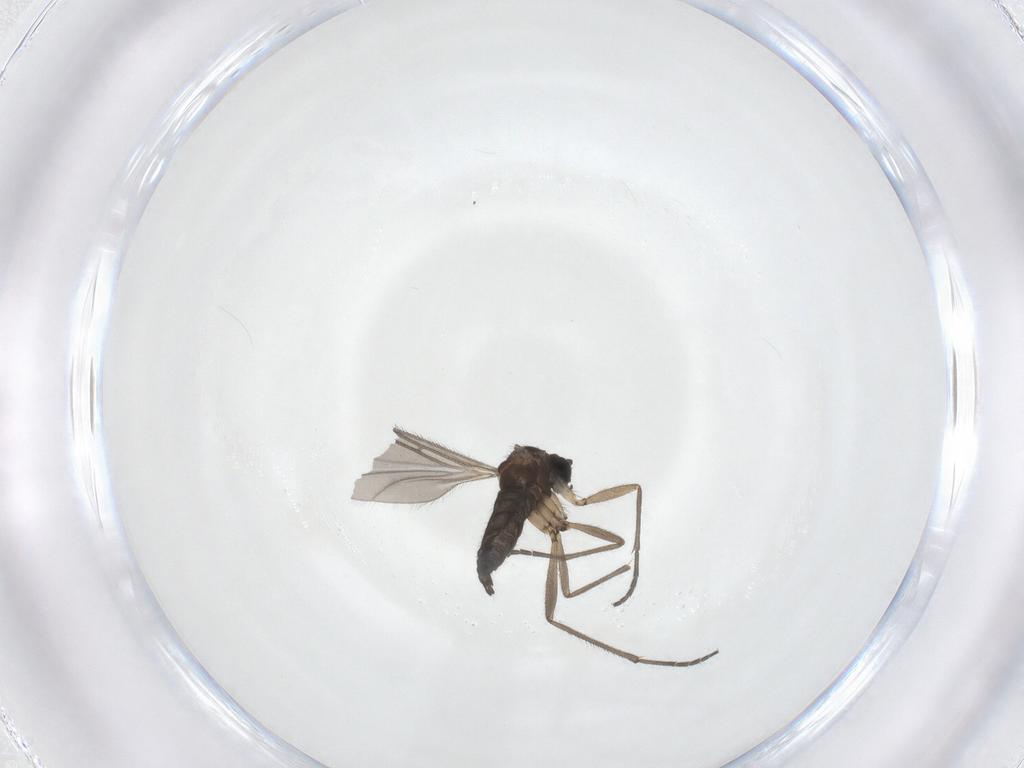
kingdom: Animalia
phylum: Arthropoda
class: Insecta
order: Diptera
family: Sciaridae
